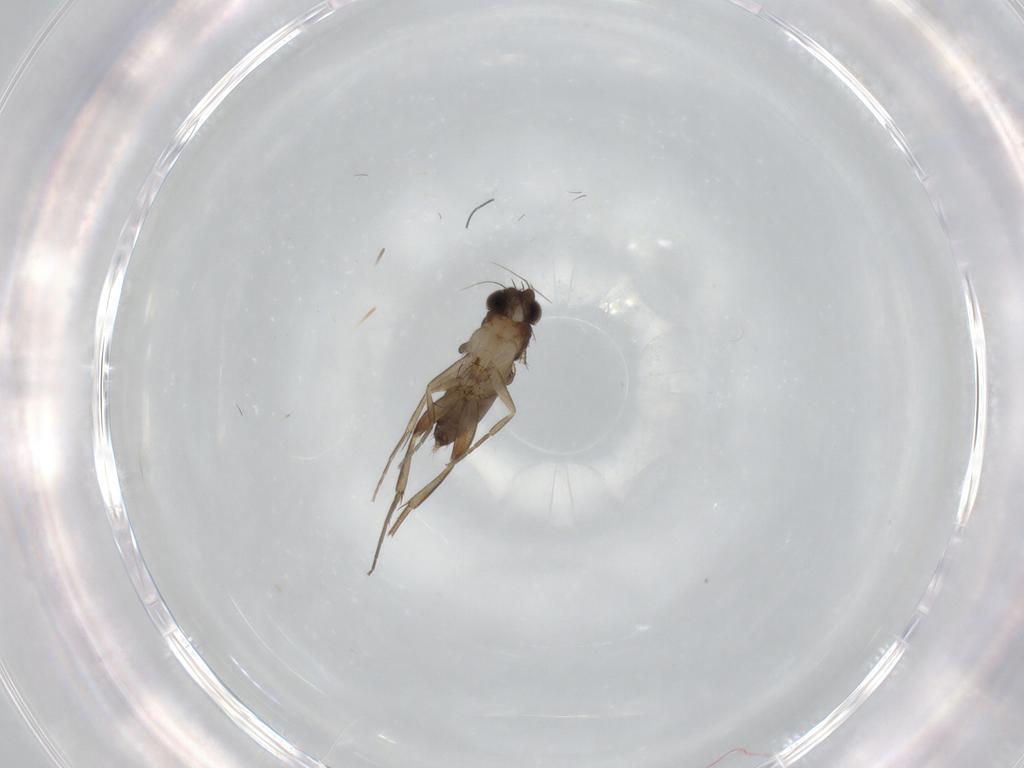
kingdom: Animalia
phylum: Arthropoda
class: Insecta
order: Diptera
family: Phoridae
